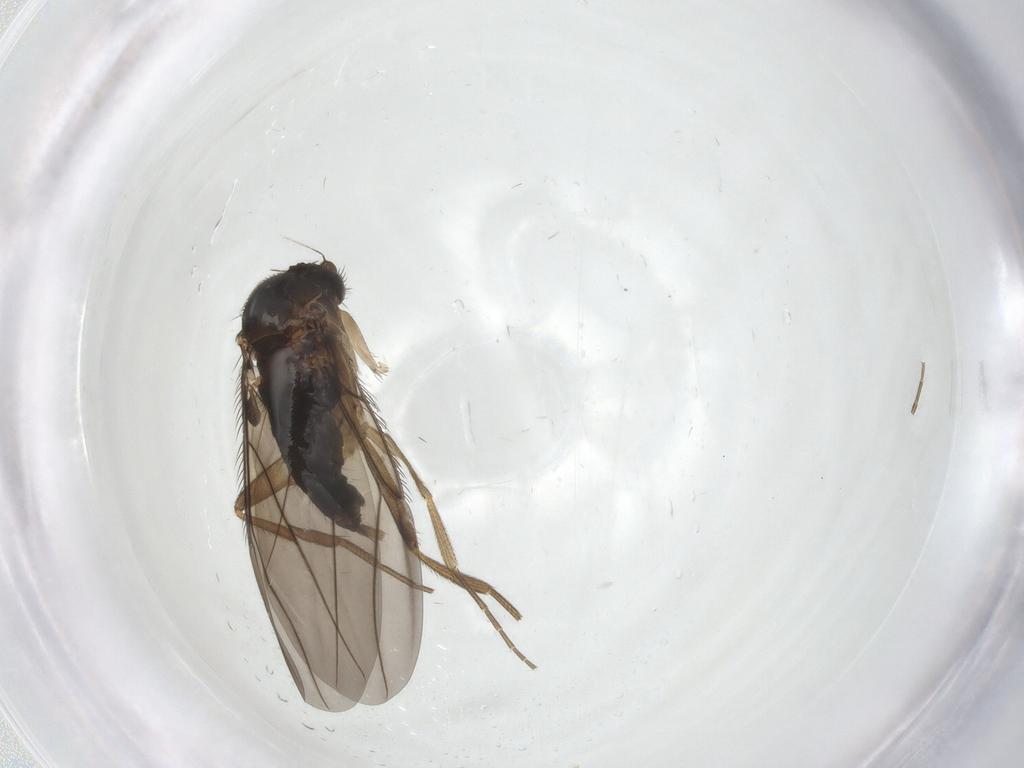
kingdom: Animalia
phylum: Arthropoda
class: Insecta
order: Diptera
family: Phoridae
